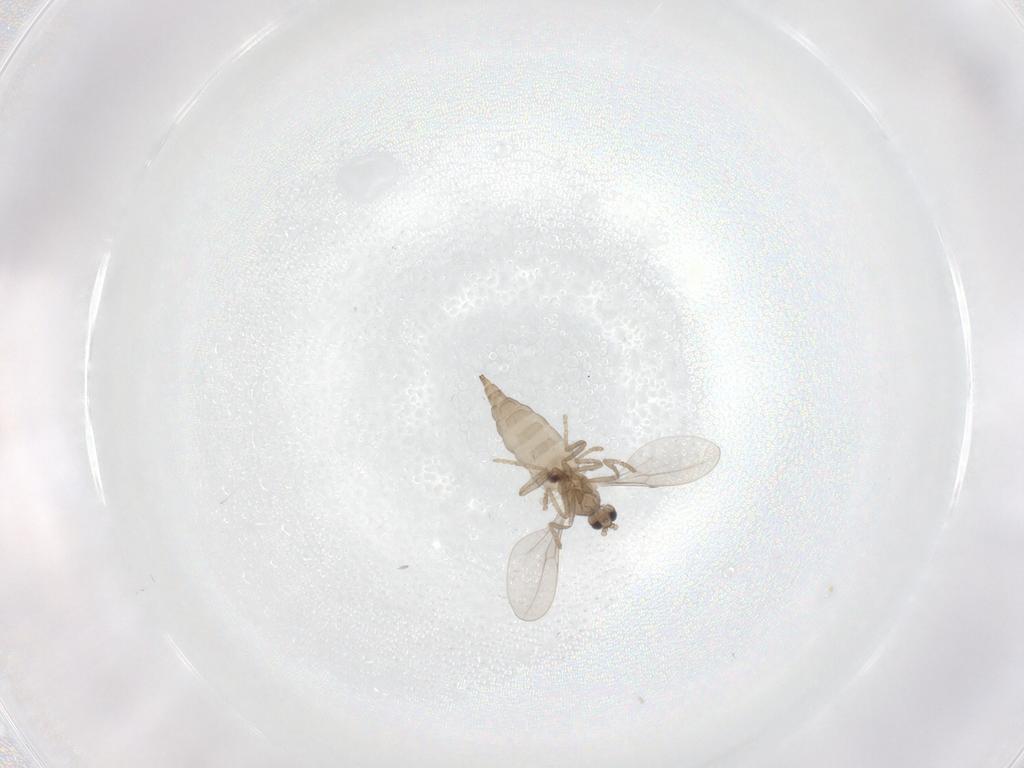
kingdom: Animalia
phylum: Arthropoda
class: Insecta
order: Diptera
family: Cecidomyiidae
